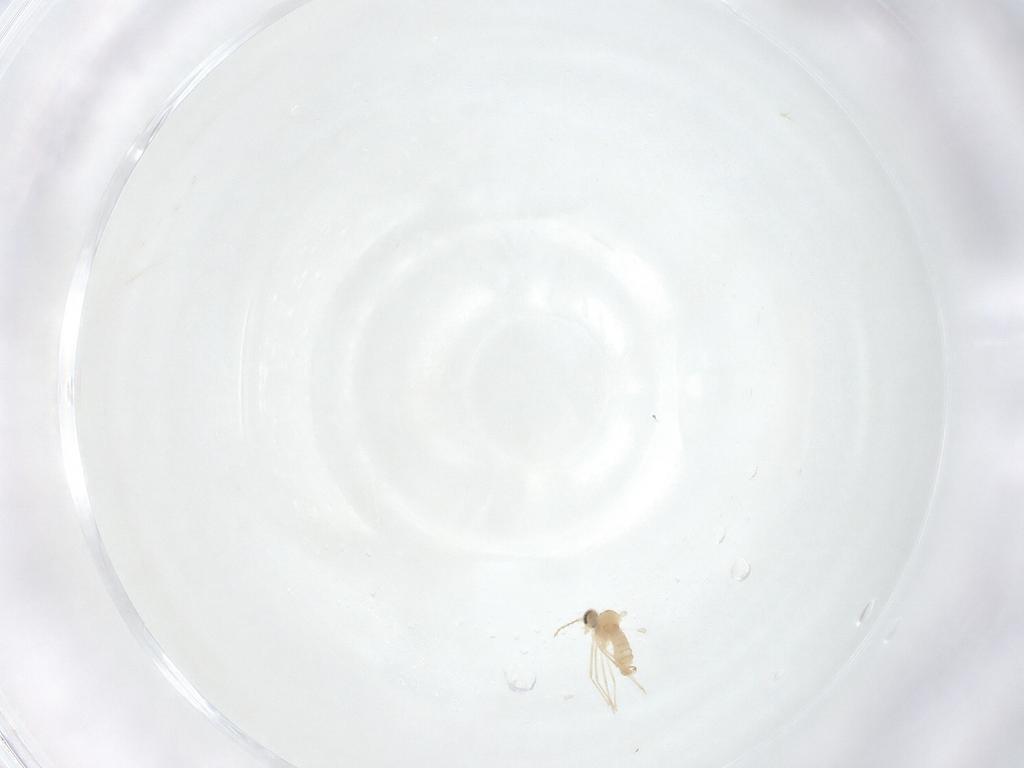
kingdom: Animalia
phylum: Arthropoda
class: Insecta
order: Diptera
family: Cecidomyiidae
